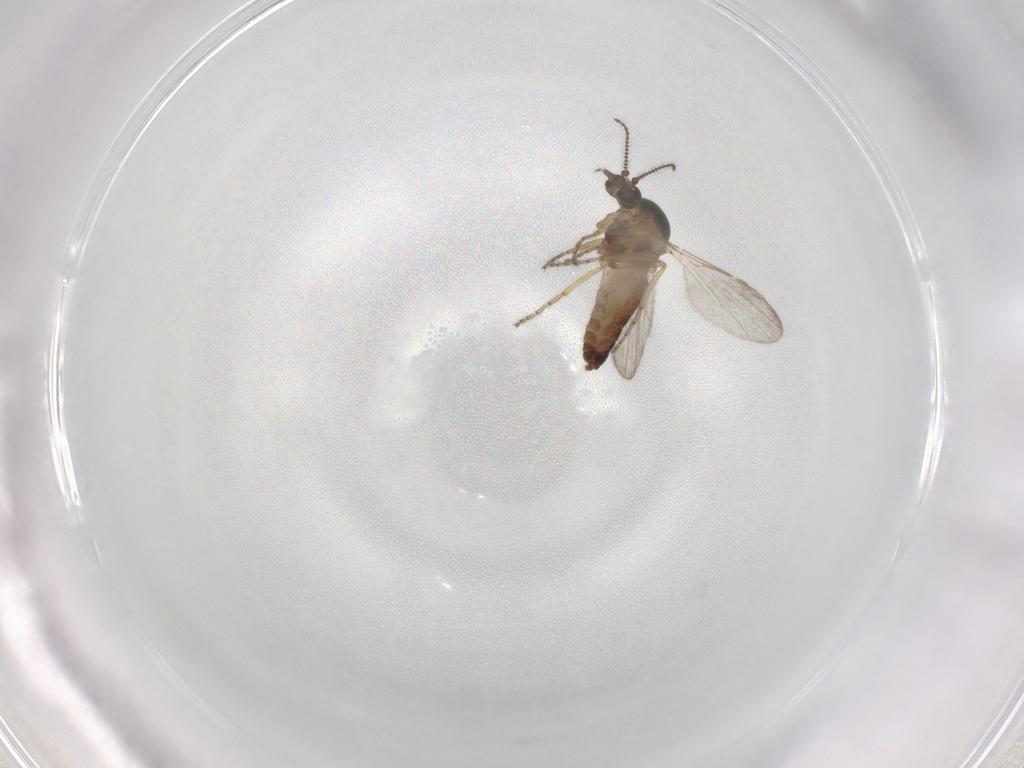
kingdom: Animalia
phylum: Arthropoda
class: Insecta
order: Diptera
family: Ceratopogonidae
